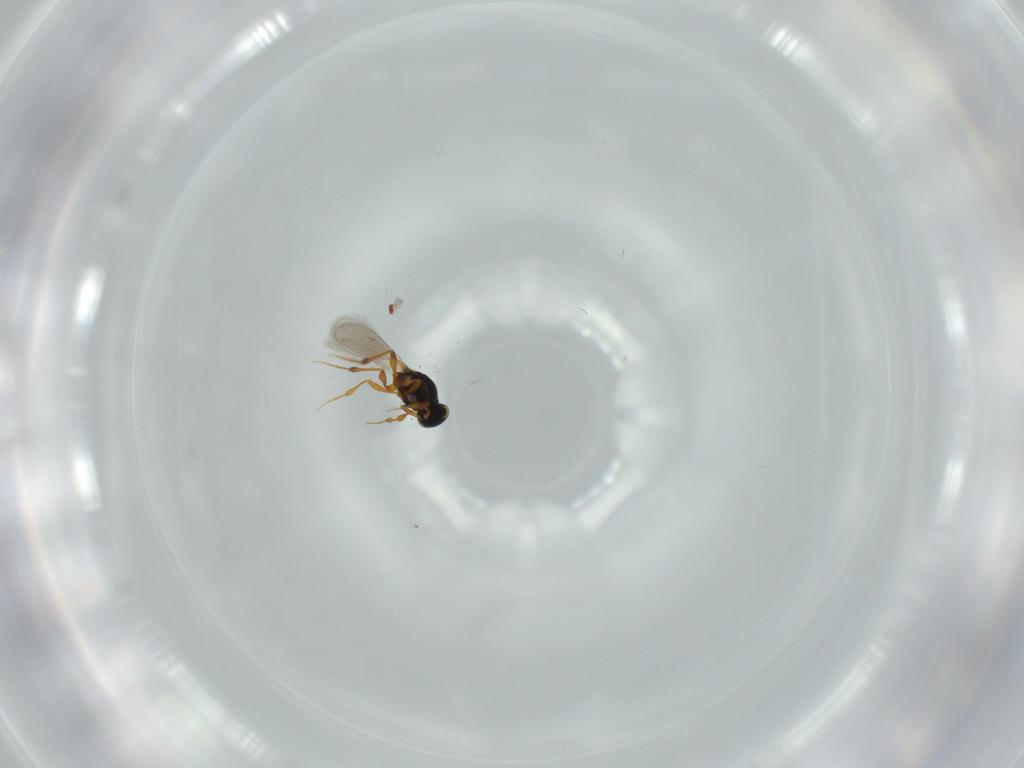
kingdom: Animalia
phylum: Arthropoda
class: Insecta
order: Hymenoptera
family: Platygastridae
